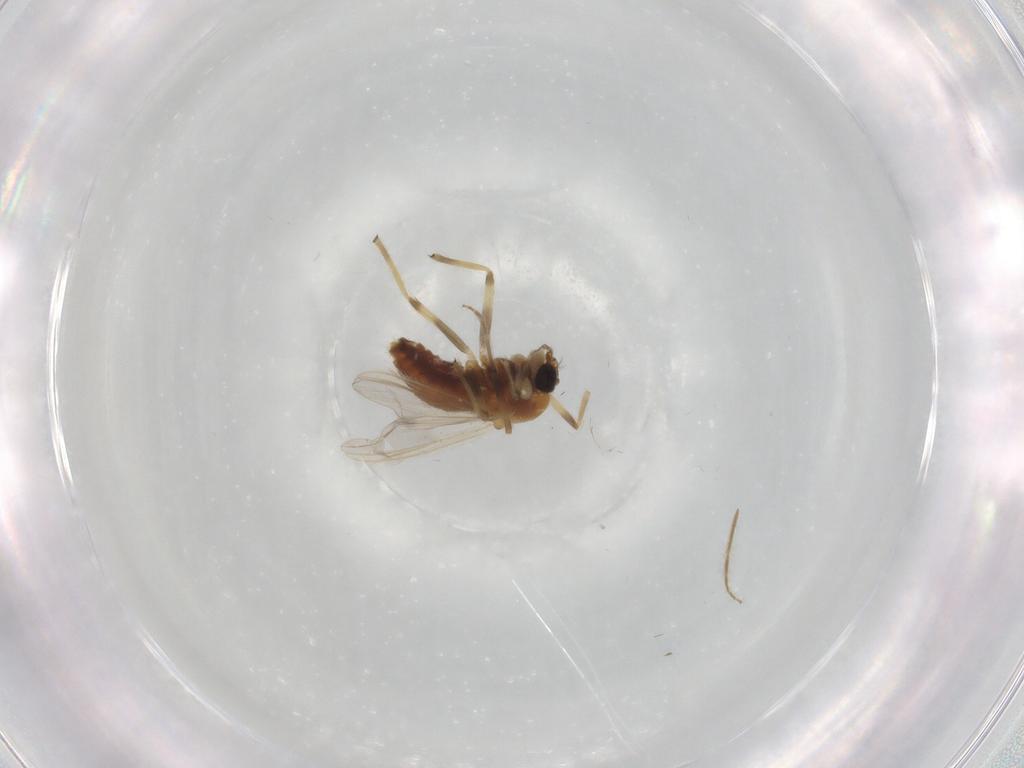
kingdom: Animalia
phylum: Arthropoda
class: Insecta
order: Diptera
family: Chironomidae
